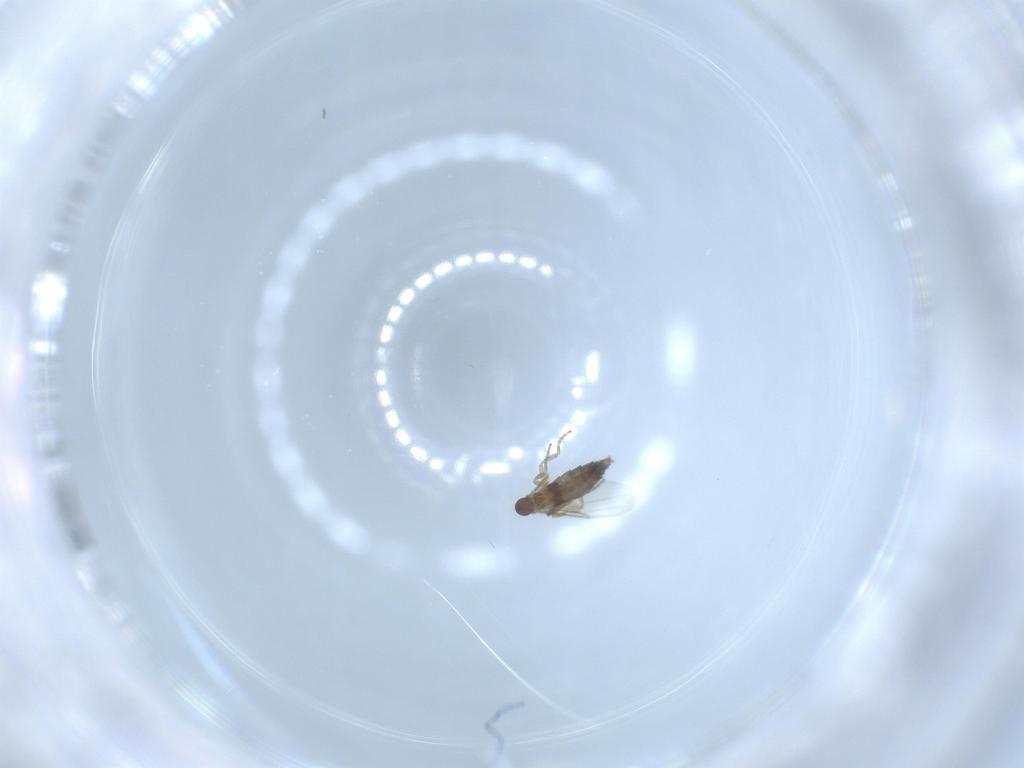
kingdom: Animalia
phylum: Arthropoda
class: Insecta
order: Diptera
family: Phoridae
